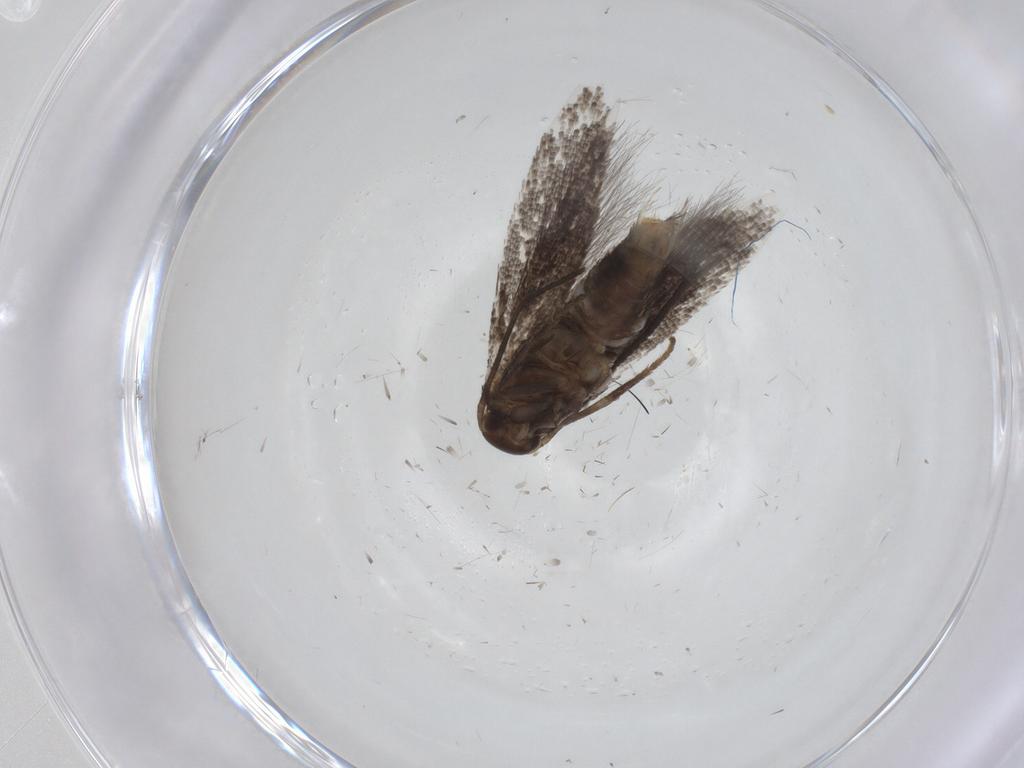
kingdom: Animalia
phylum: Arthropoda
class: Insecta
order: Lepidoptera
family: Elachistidae
